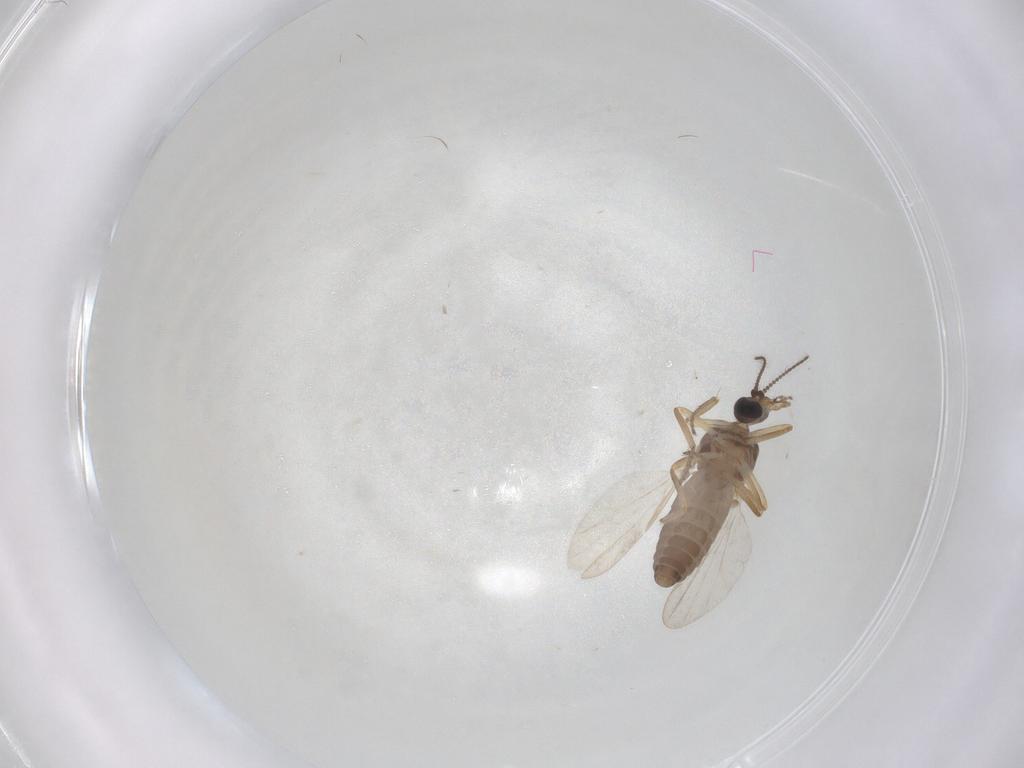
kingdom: Animalia
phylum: Arthropoda
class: Insecta
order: Diptera
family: Ceratopogonidae
